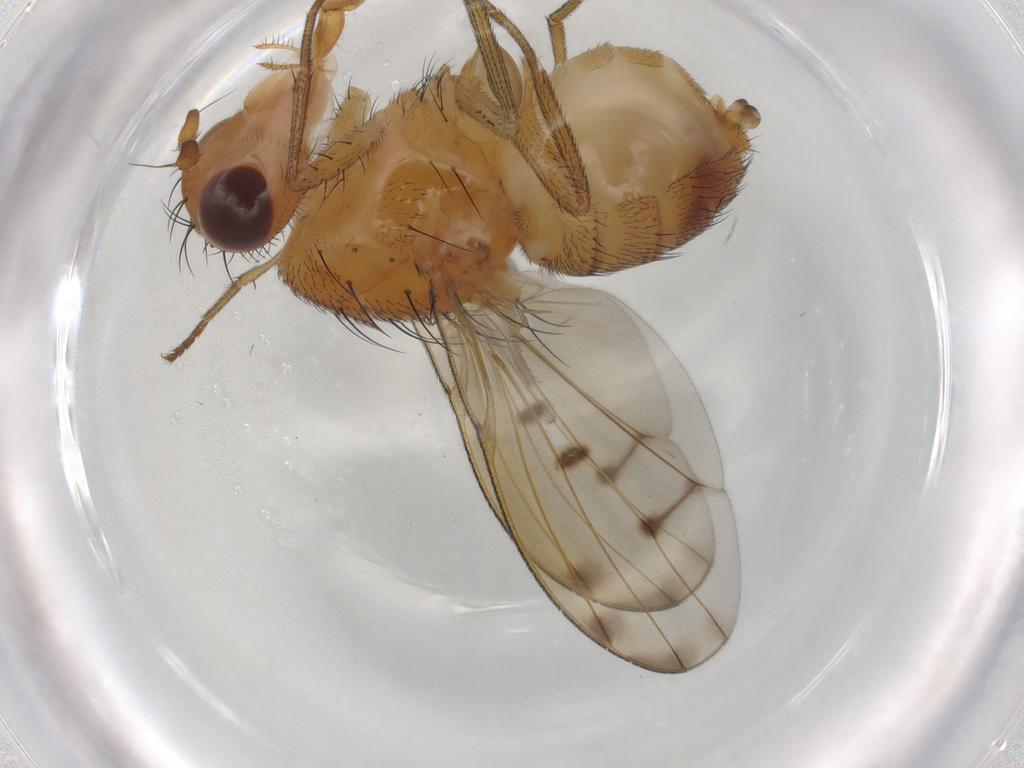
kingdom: Animalia
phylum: Arthropoda
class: Insecta
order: Diptera
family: Lauxaniidae
